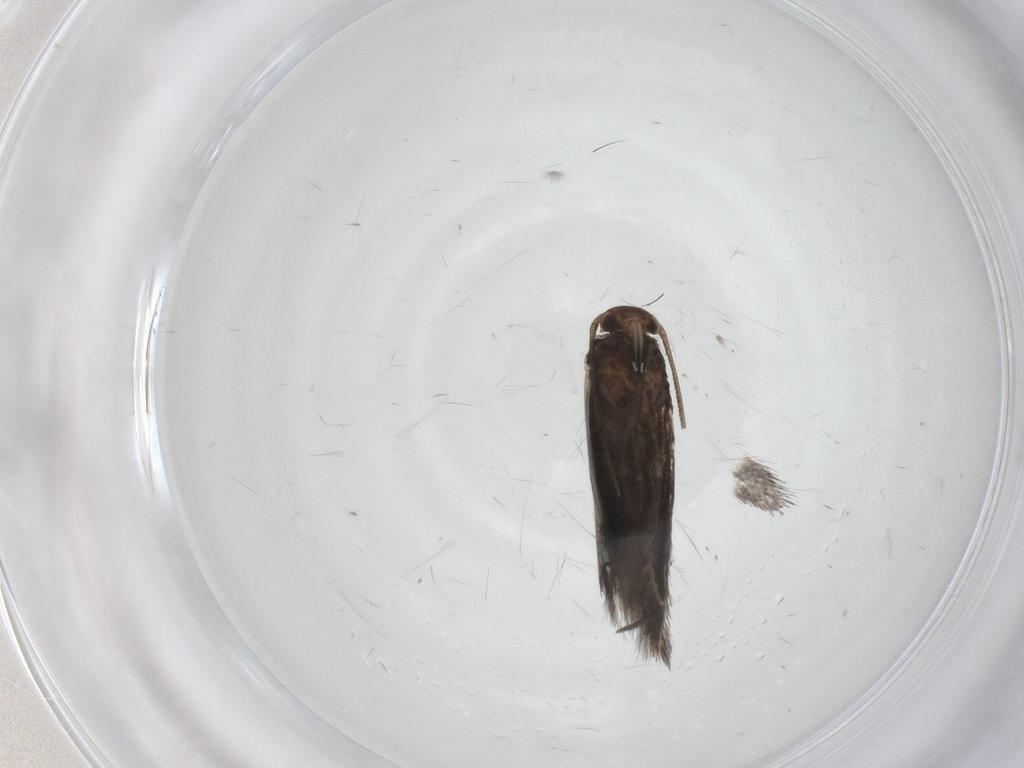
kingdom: Animalia
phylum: Arthropoda
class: Insecta
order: Lepidoptera
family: Elachistidae
